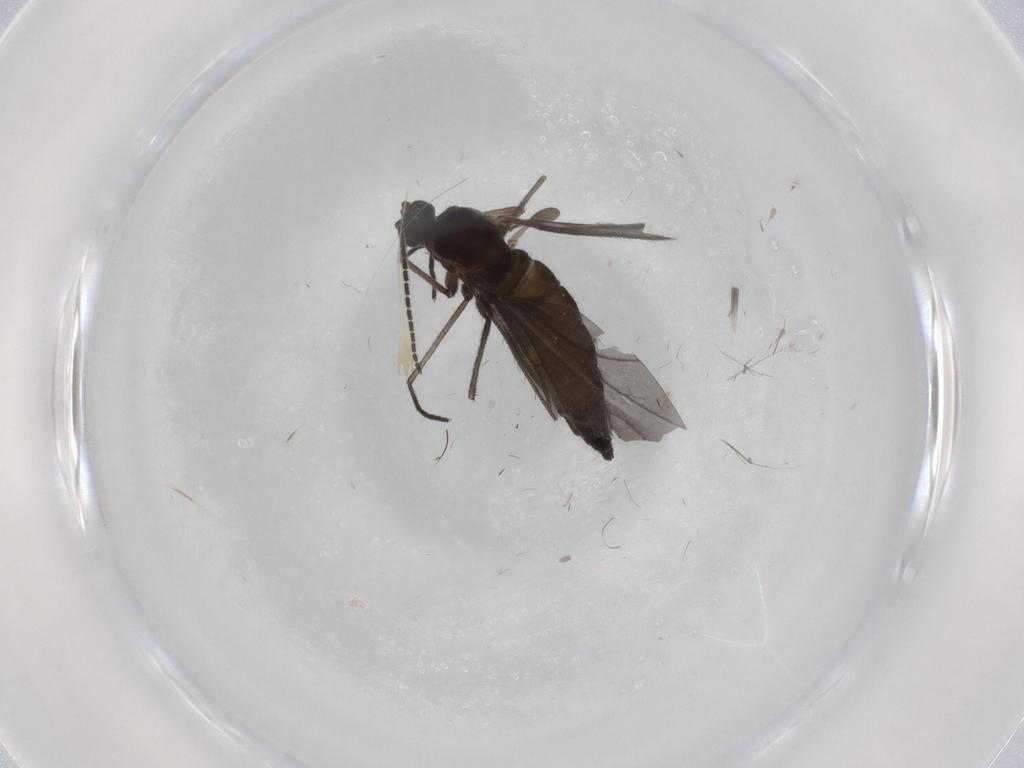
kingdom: Animalia
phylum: Arthropoda
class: Insecta
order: Diptera
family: Sciaridae
